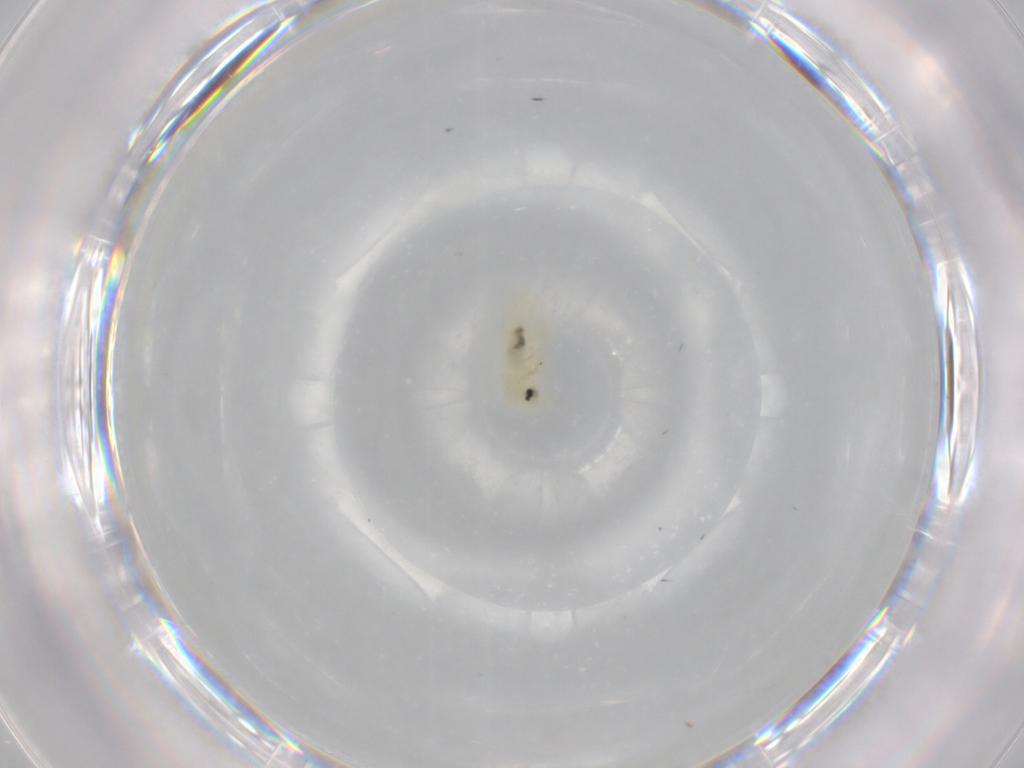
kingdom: Animalia
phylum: Arthropoda
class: Insecta
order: Hemiptera
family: Aleyrodidae
